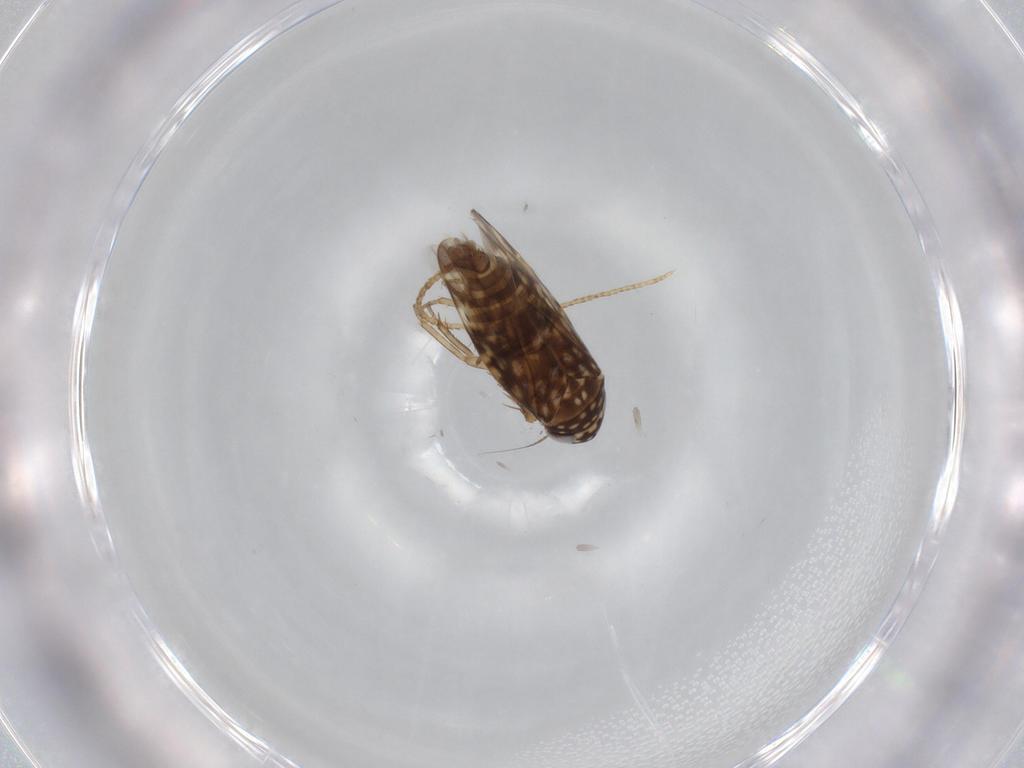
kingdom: Animalia
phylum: Arthropoda
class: Insecta
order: Hemiptera
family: Cicadellidae
